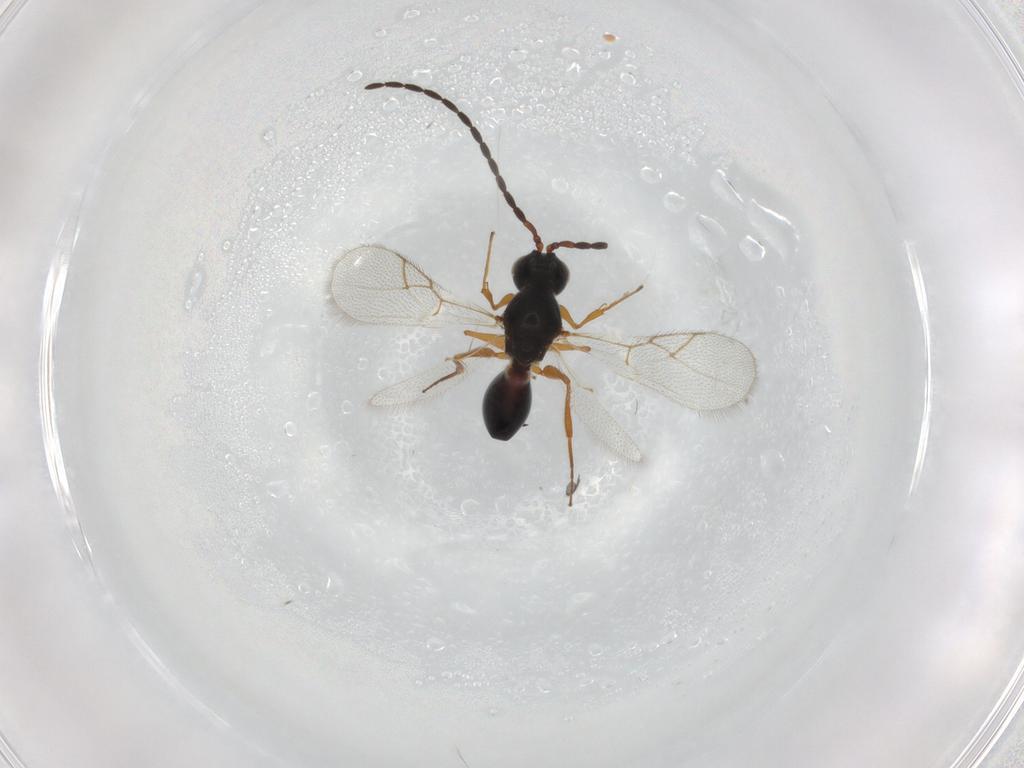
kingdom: Animalia
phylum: Arthropoda
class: Insecta
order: Hymenoptera
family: Figitidae
